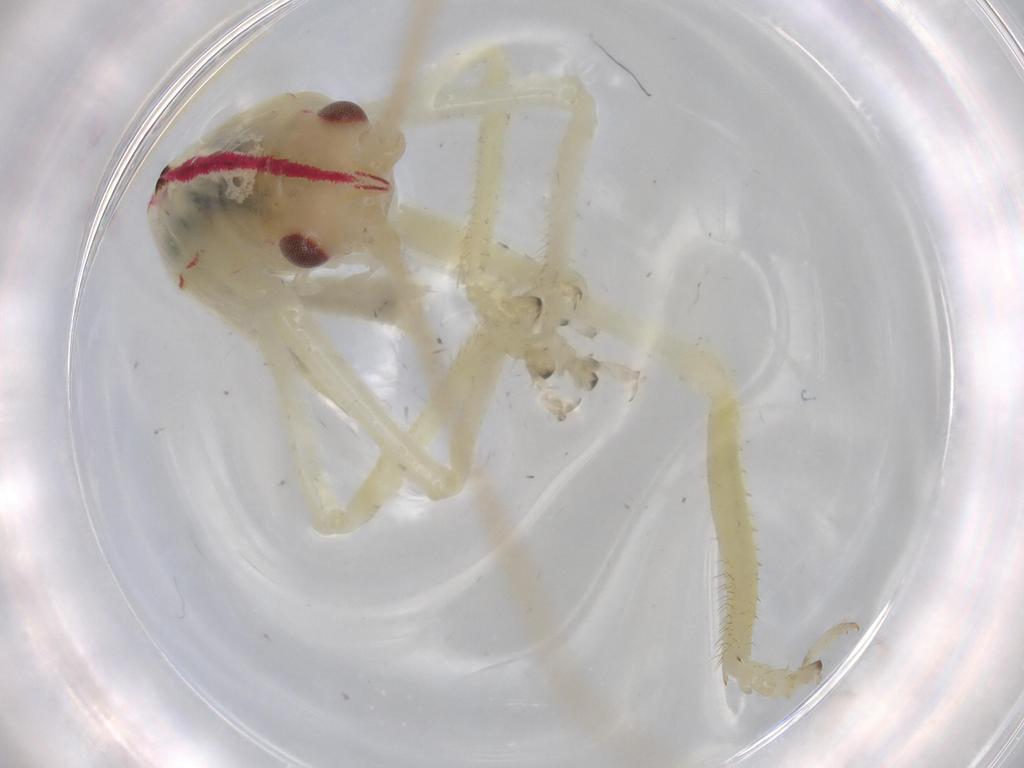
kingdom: Animalia
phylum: Arthropoda
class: Insecta
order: Orthoptera
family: Tettigoniidae
